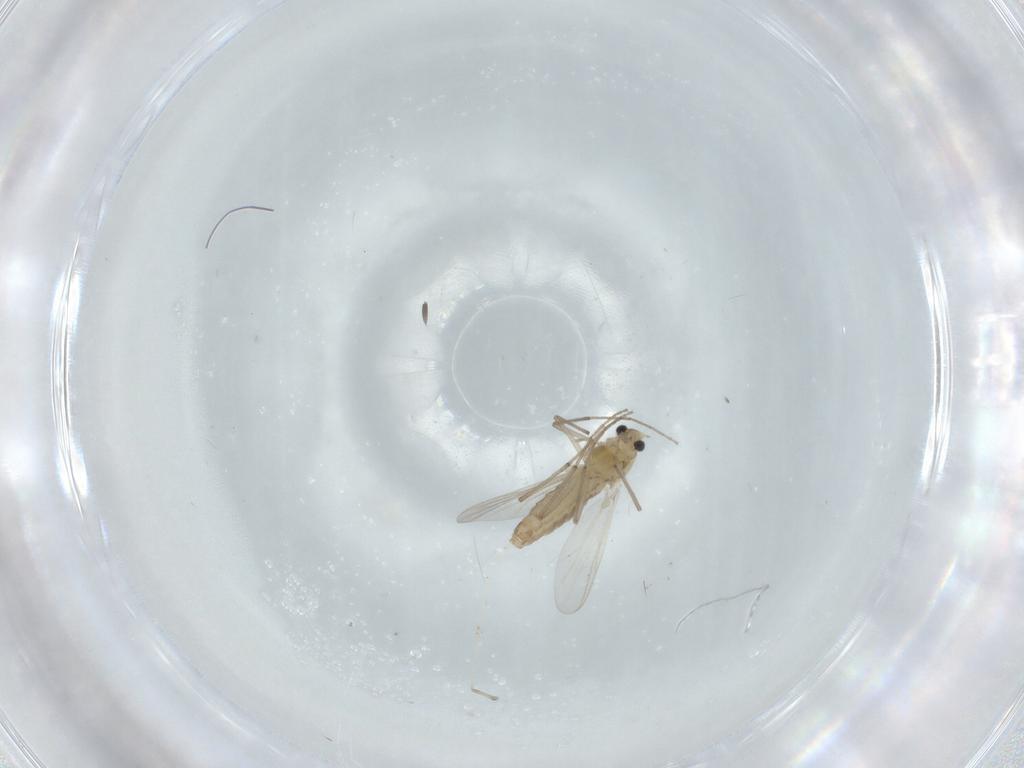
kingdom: Animalia
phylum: Arthropoda
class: Insecta
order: Diptera
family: Chironomidae
